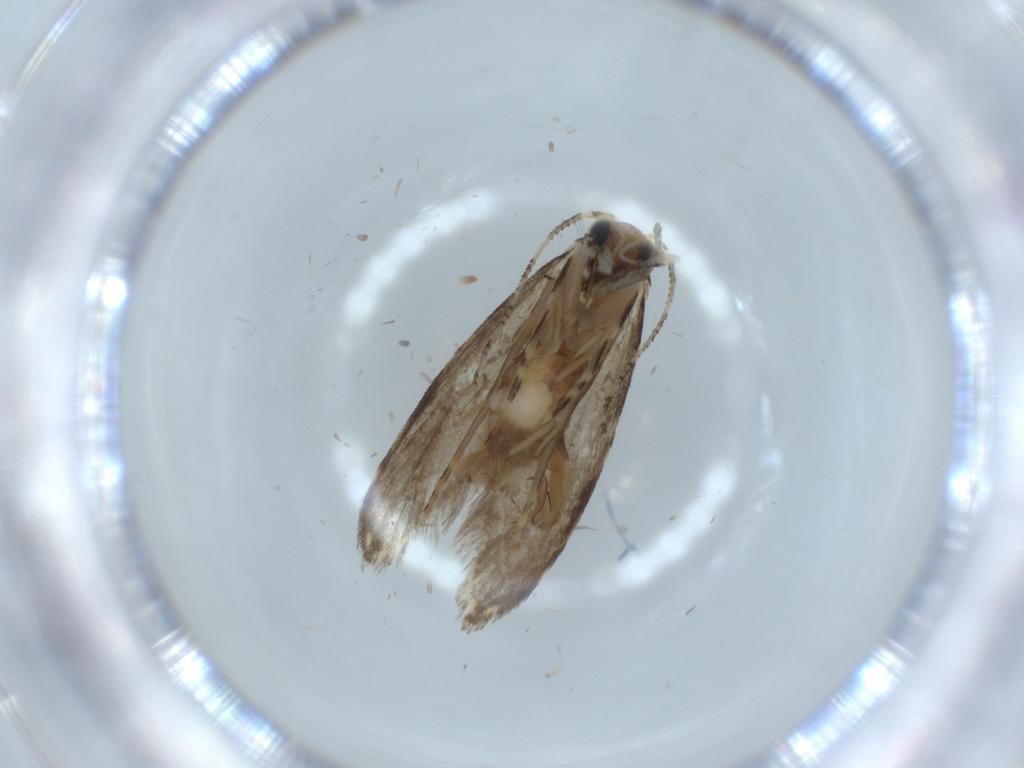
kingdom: Animalia
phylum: Arthropoda
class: Insecta
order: Lepidoptera
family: Tineidae
